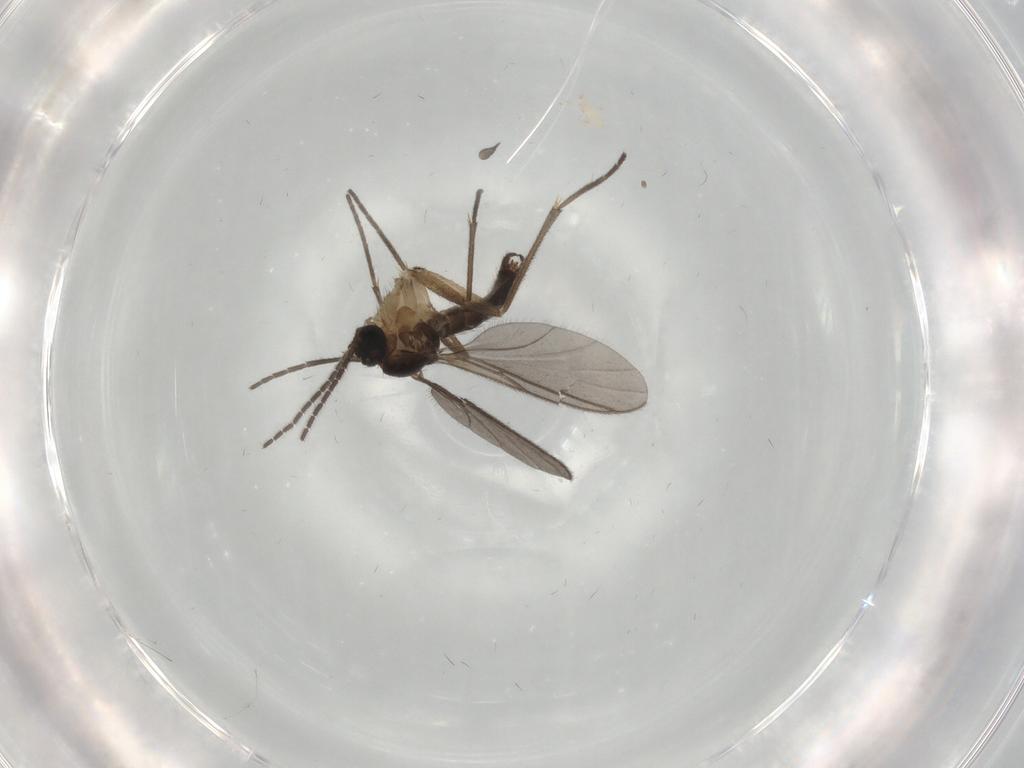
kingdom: Animalia
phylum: Arthropoda
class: Insecta
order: Diptera
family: Sciaridae
